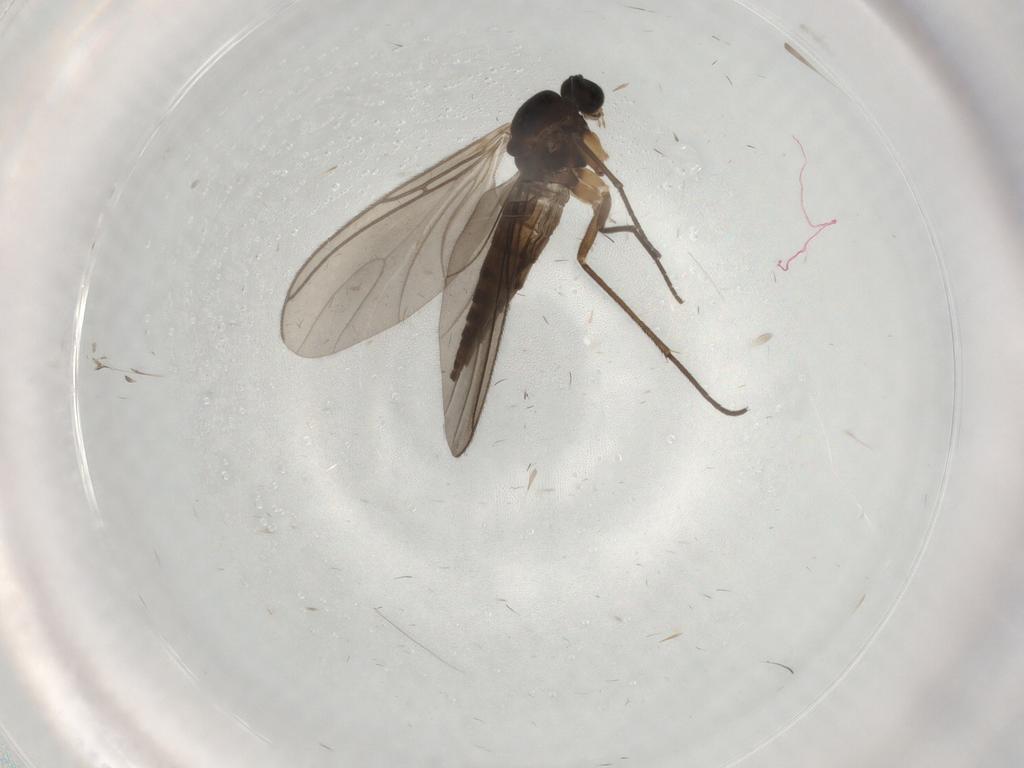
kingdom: Animalia
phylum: Arthropoda
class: Insecta
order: Diptera
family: Sciaridae
